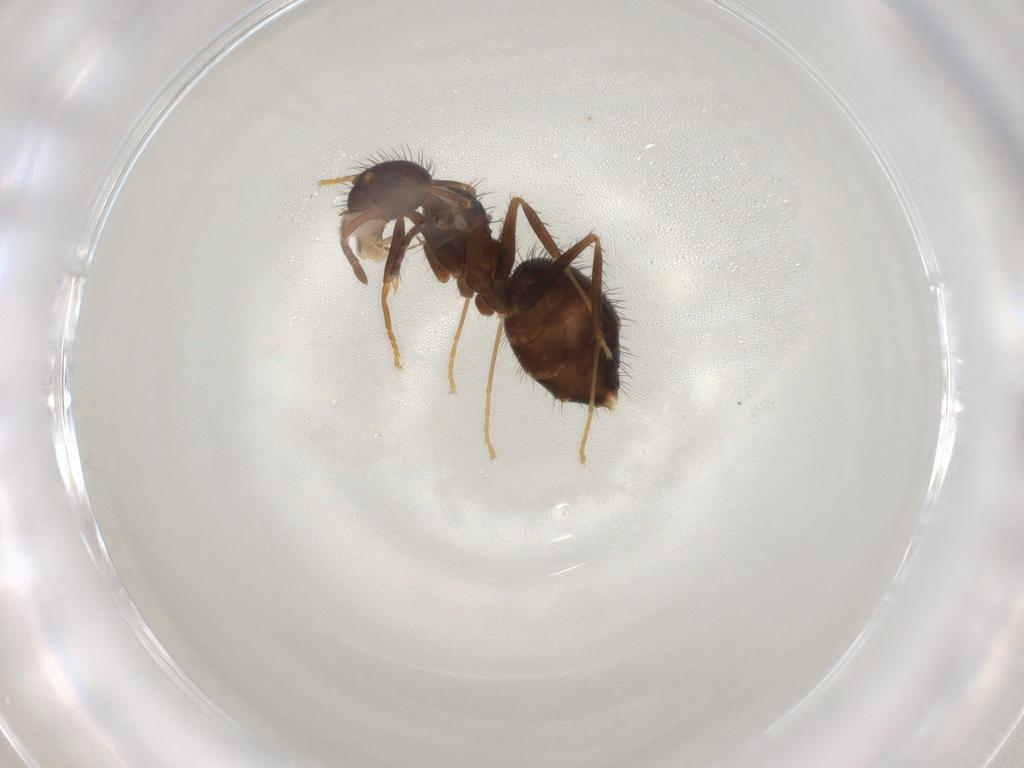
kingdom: Animalia
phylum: Arthropoda
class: Insecta
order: Hymenoptera
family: Formicidae
